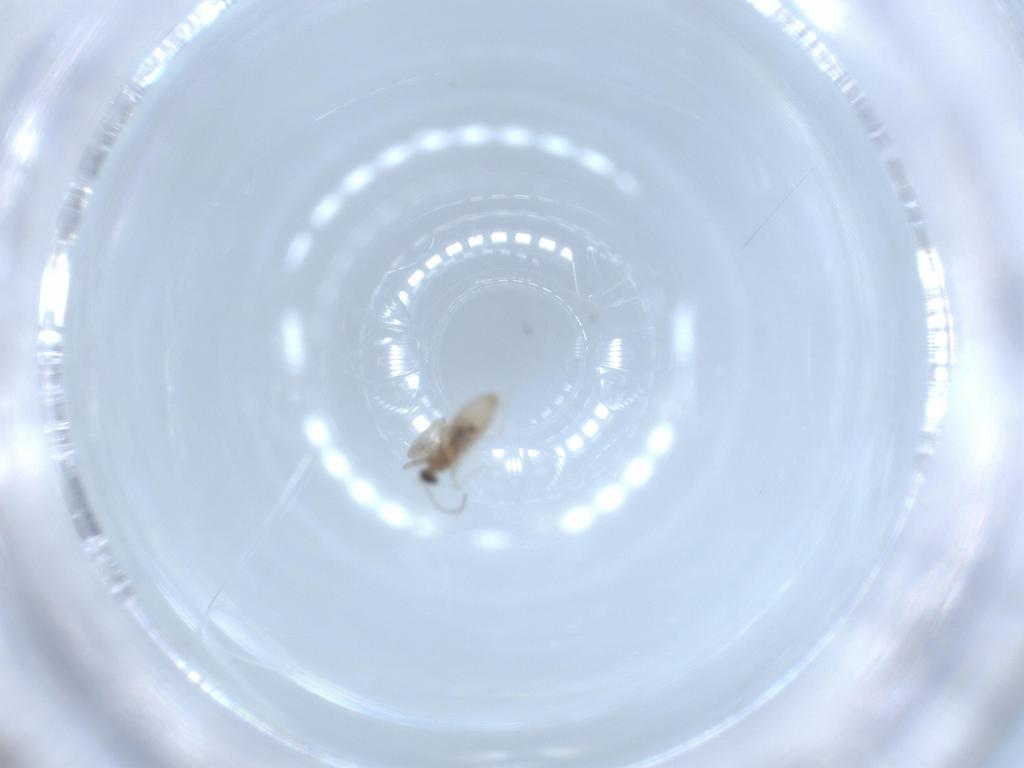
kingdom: Animalia
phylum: Arthropoda
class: Insecta
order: Diptera
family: Cecidomyiidae
